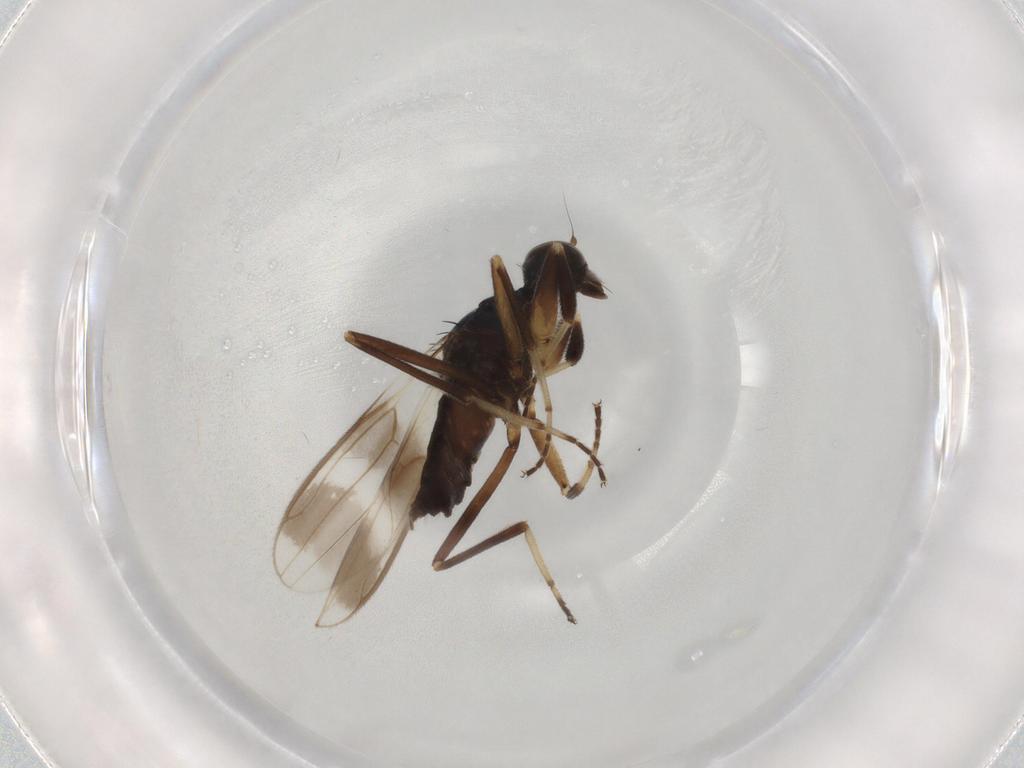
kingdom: Animalia
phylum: Arthropoda
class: Insecta
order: Diptera
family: Hybotidae
